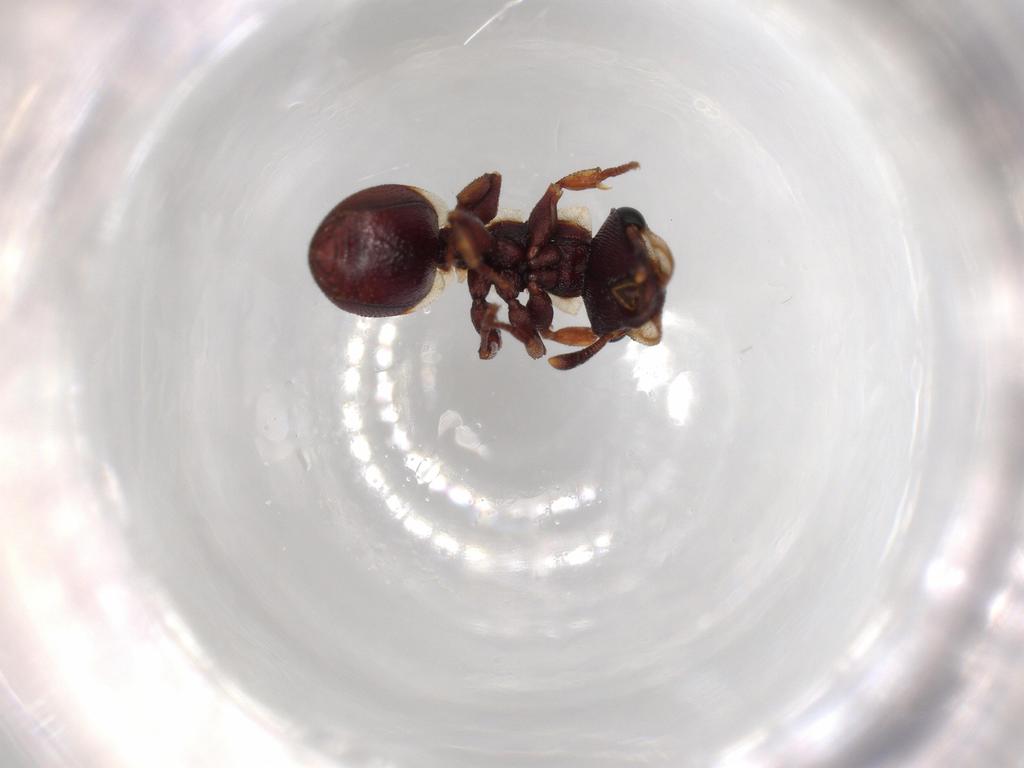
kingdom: Animalia
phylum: Arthropoda
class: Insecta
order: Hymenoptera
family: Formicidae
